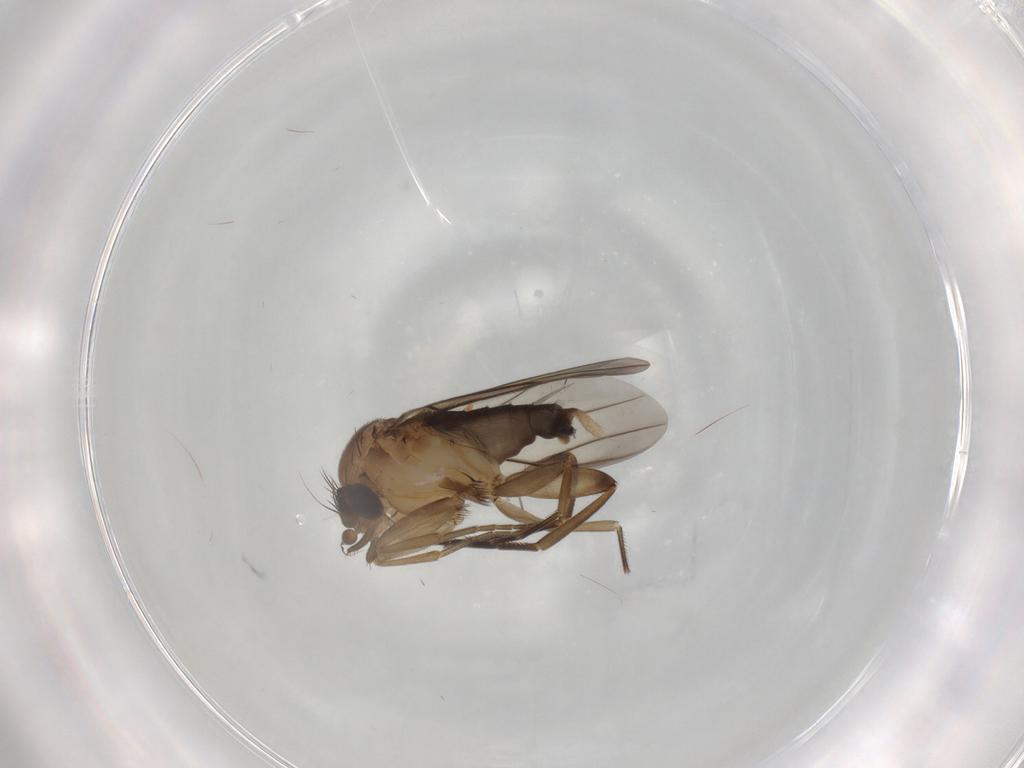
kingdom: Animalia
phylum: Arthropoda
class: Insecta
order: Diptera
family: Phoridae
